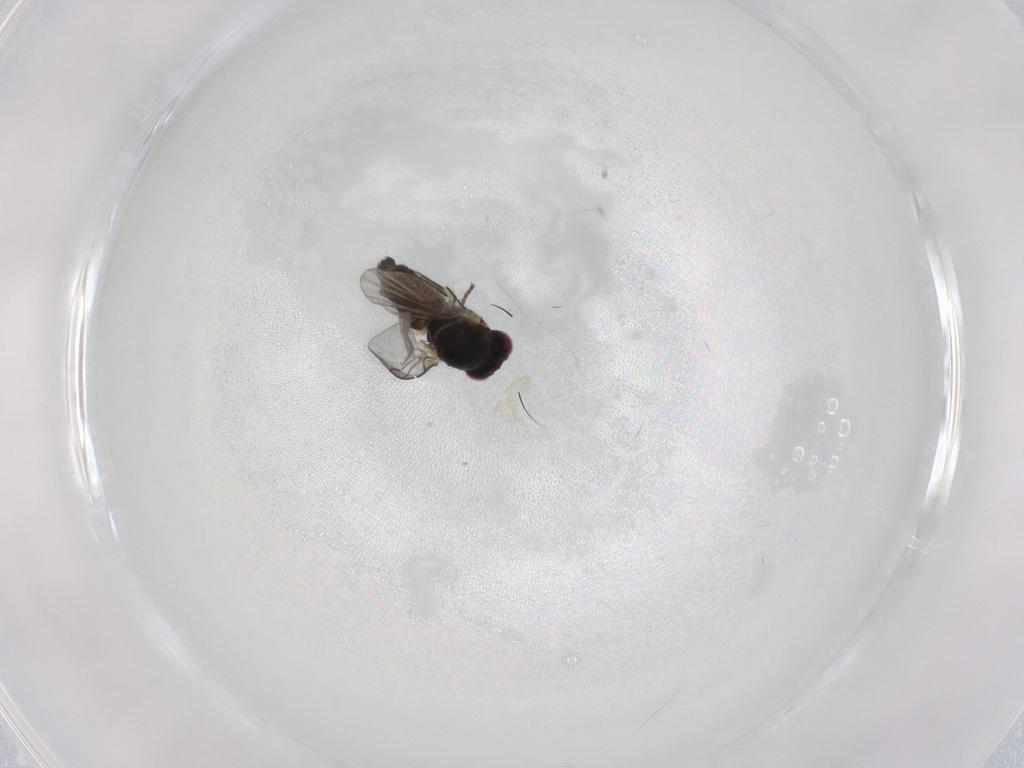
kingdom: Animalia
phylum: Arthropoda
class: Insecta
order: Diptera
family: Agromyzidae
